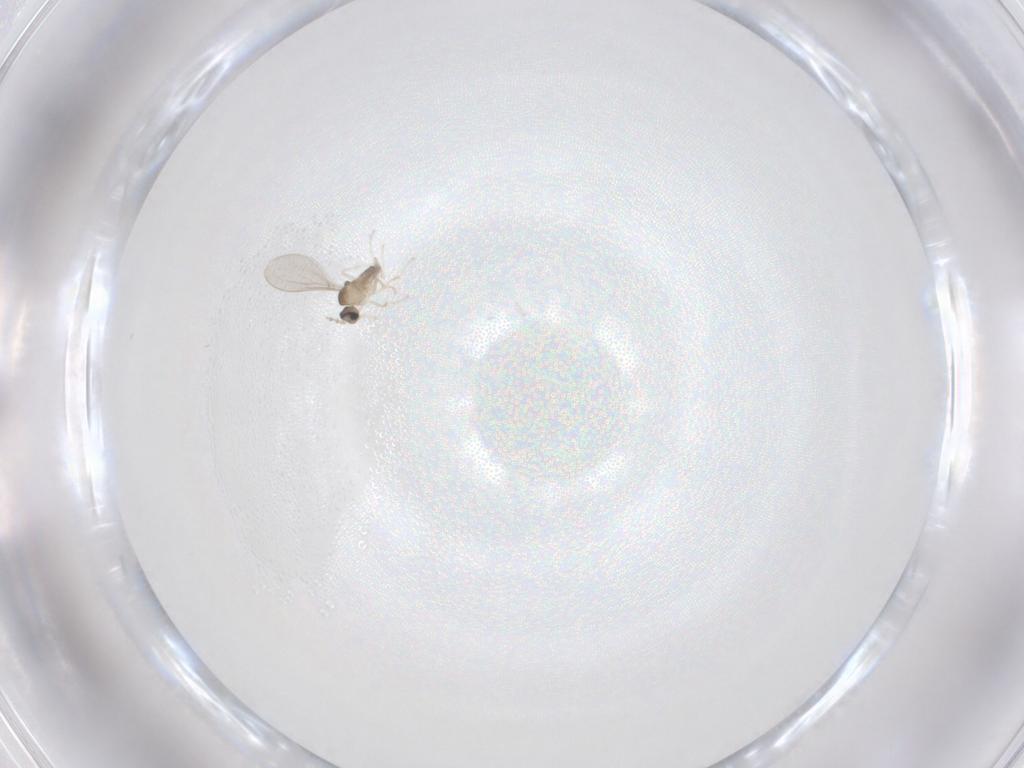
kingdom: Animalia
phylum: Arthropoda
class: Insecta
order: Diptera
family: Cecidomyiidae
